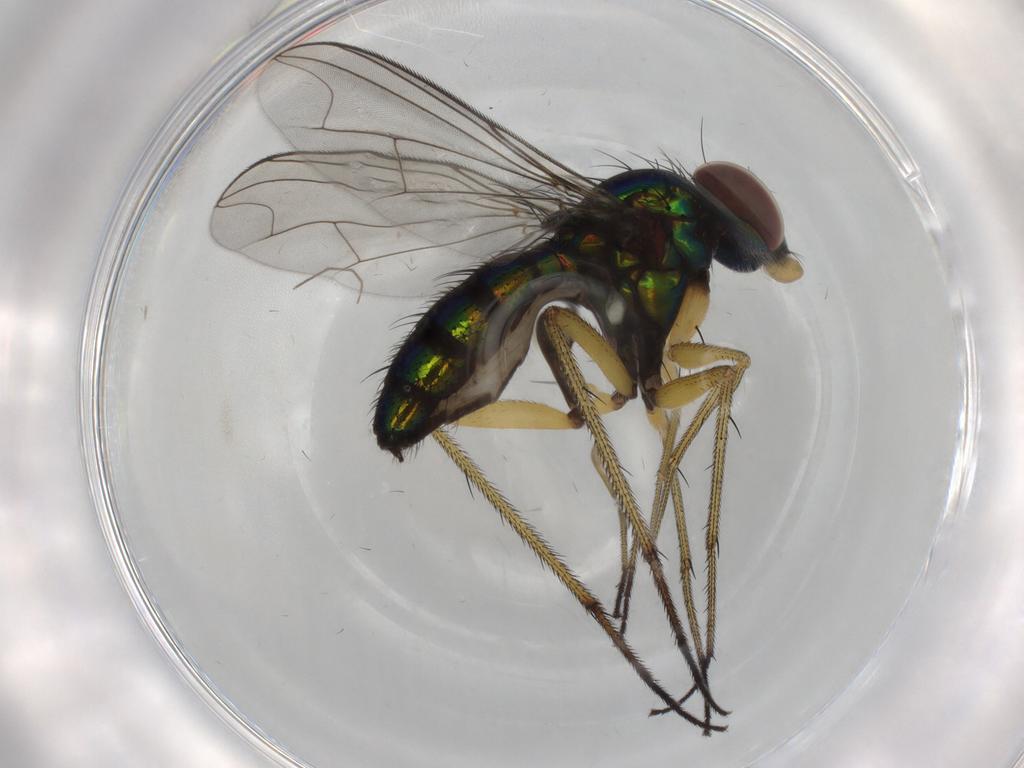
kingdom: Animalia
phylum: Arthropoda
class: Insecta
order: Diptera
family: Dolichopodidae
